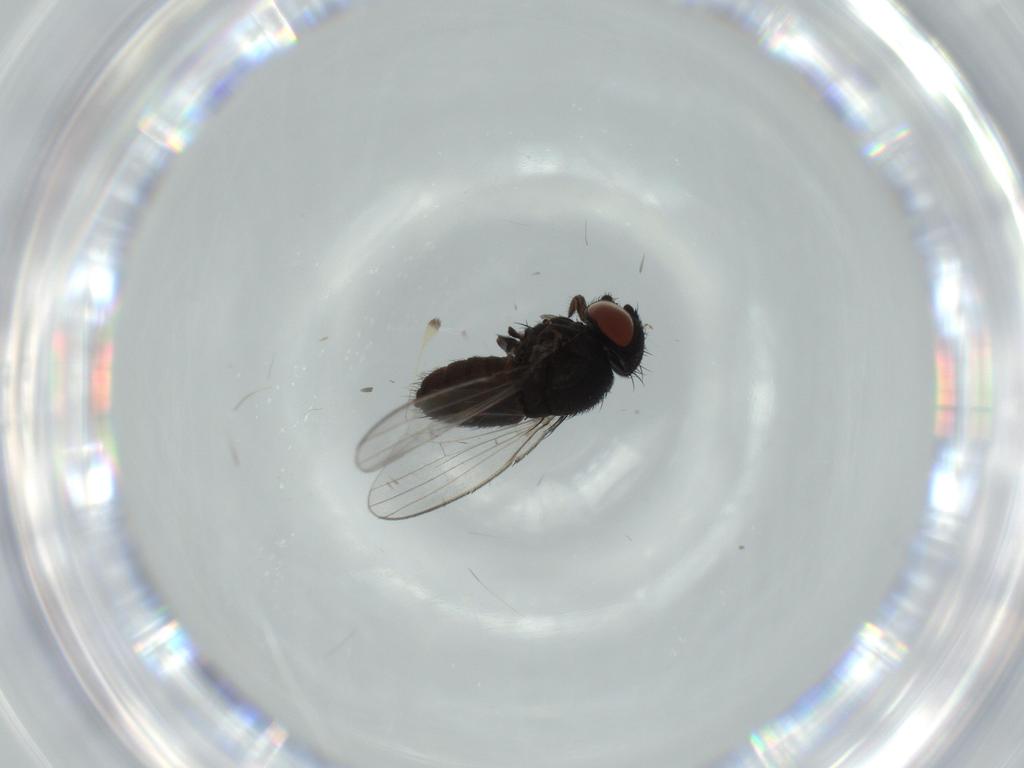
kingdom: Animalia
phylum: Arthropoda
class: Insecta
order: Diptera
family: Milichiidae
